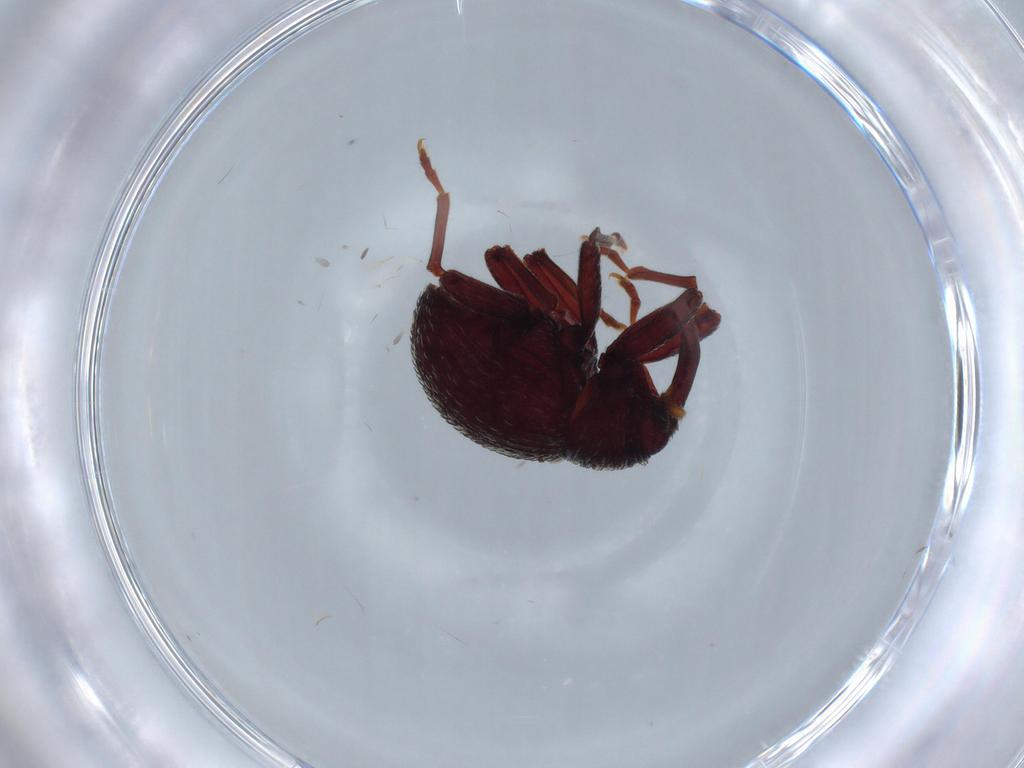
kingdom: Animalia
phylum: Arthropoda
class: Insecta
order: Coleoptera
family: Curculionidae
